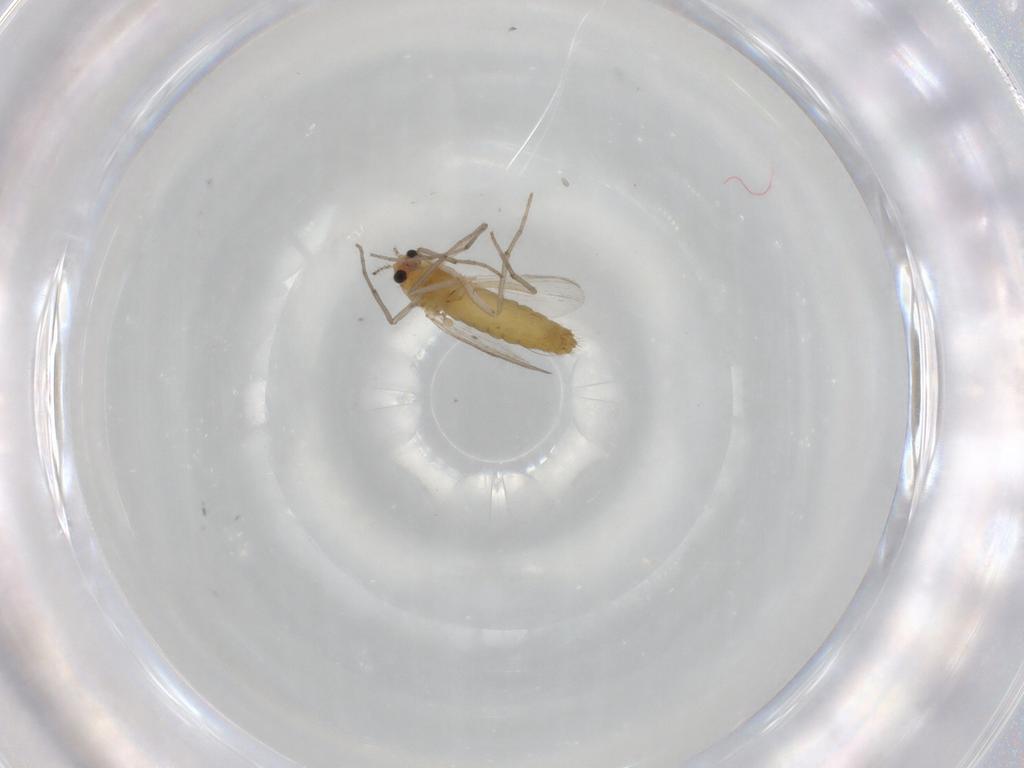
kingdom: Animalia
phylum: Arthropoda
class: Insecta
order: Diptera
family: Chironomidae
